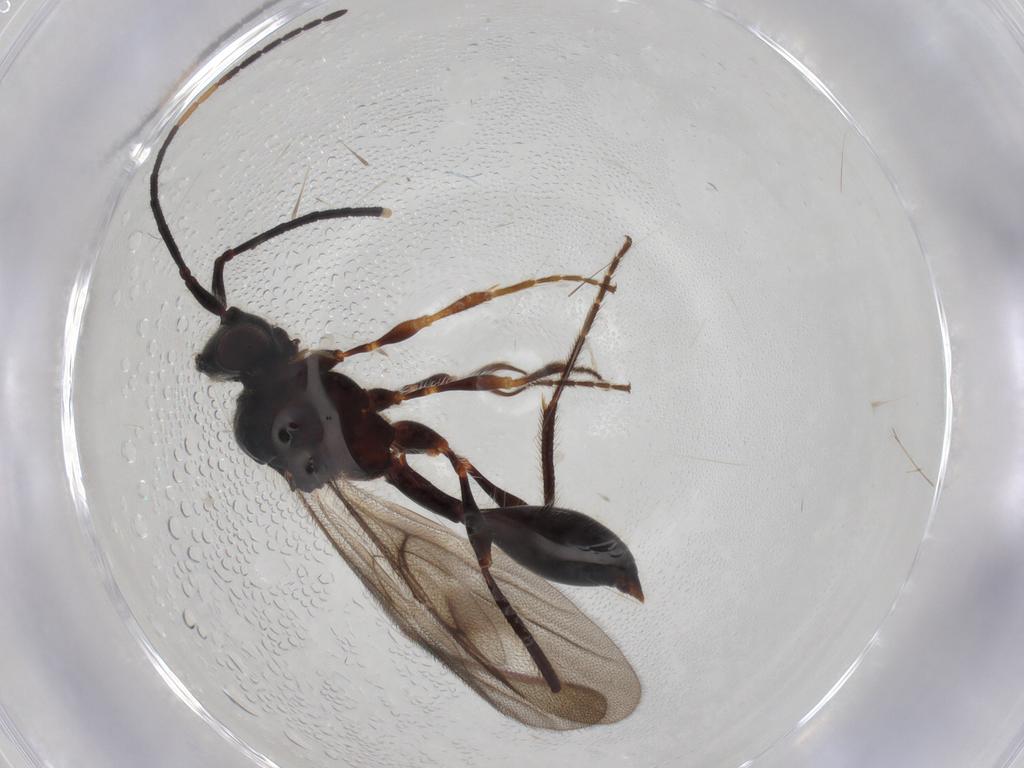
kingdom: Animalia
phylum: Arthropoda
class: Insecta
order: Hymenoptera
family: Diapriidae
